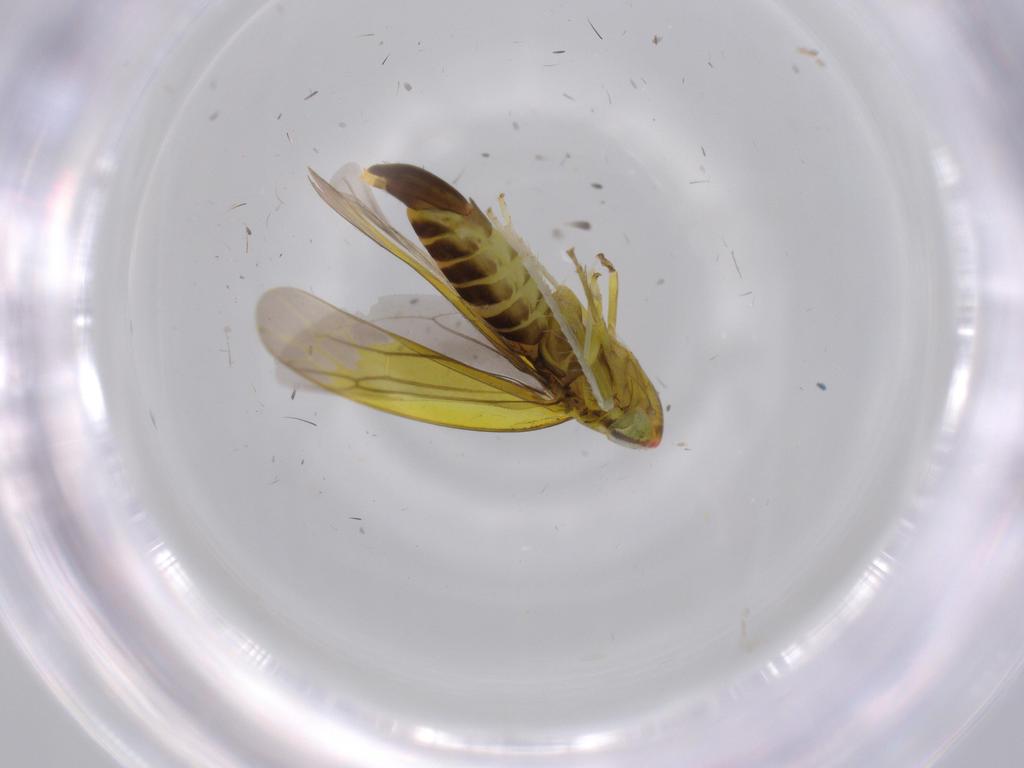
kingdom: Animalia
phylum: Arthropoda
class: Insecta
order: Hemiptera
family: Cicadellidae
